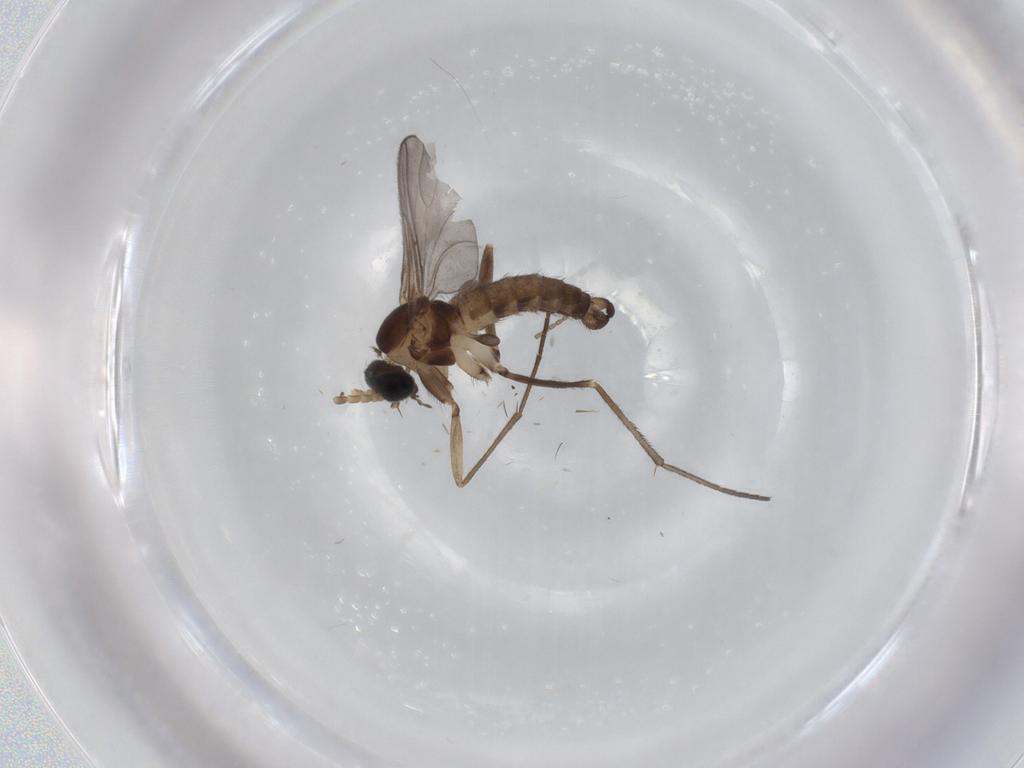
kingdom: Animalia
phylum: Arthropoda
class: Insecta
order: Diptera
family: Sciaridae
